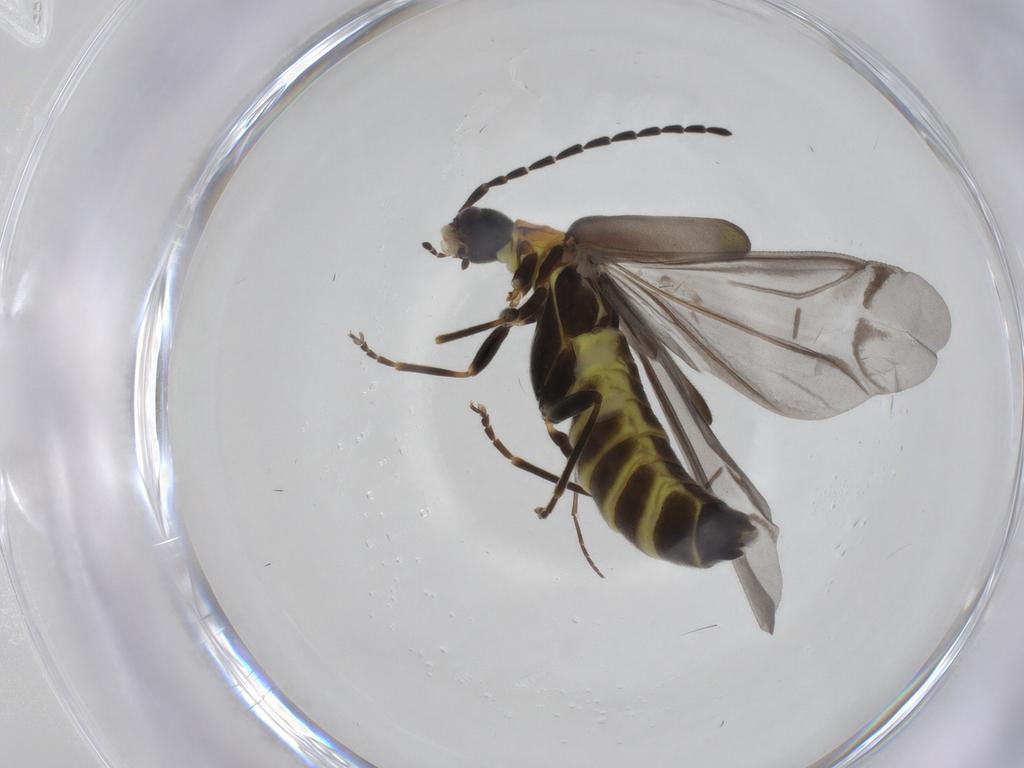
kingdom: Animalia
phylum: Arthropoda
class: Insecta
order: Coleoptera
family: Cantharidae
